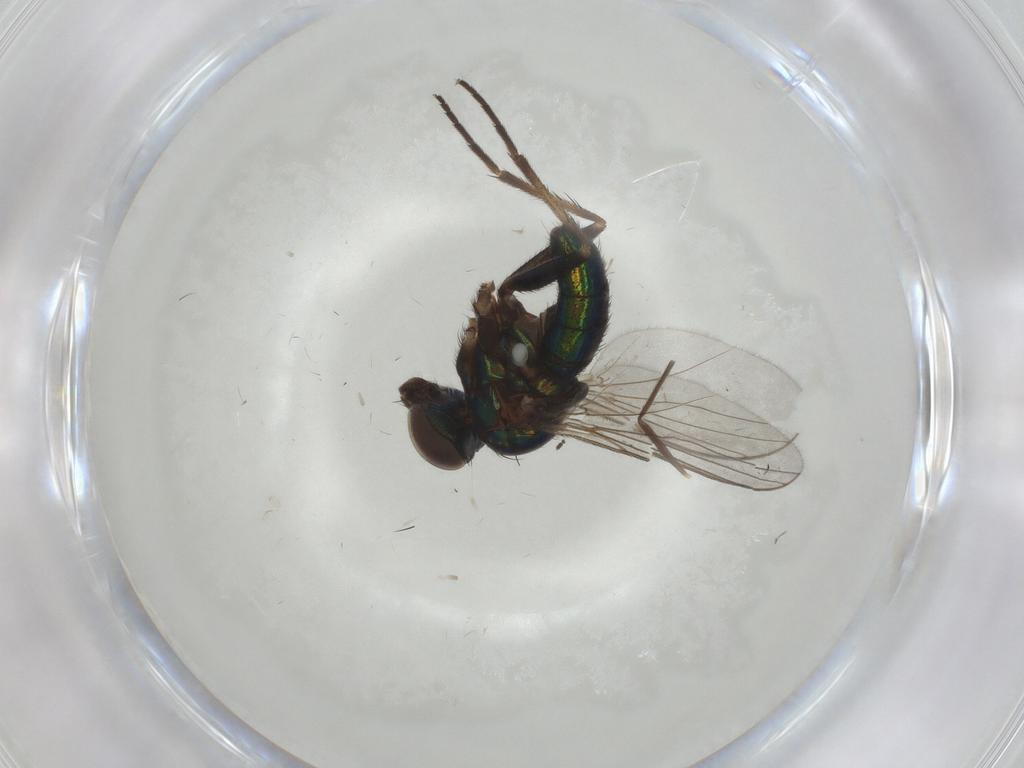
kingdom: Animalia
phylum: Arthropoda
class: Insecta
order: Diptera
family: Dolichopodidae
